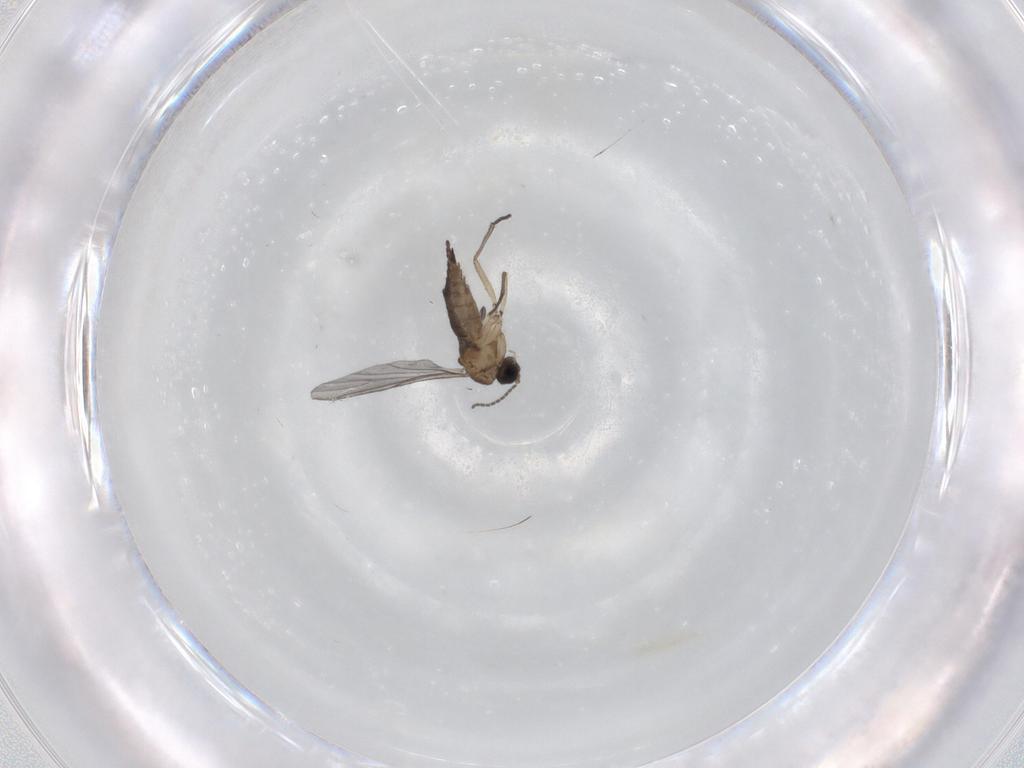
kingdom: Animalia
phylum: Arthropoda
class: Insecta
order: Diptera
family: Sciaridae
